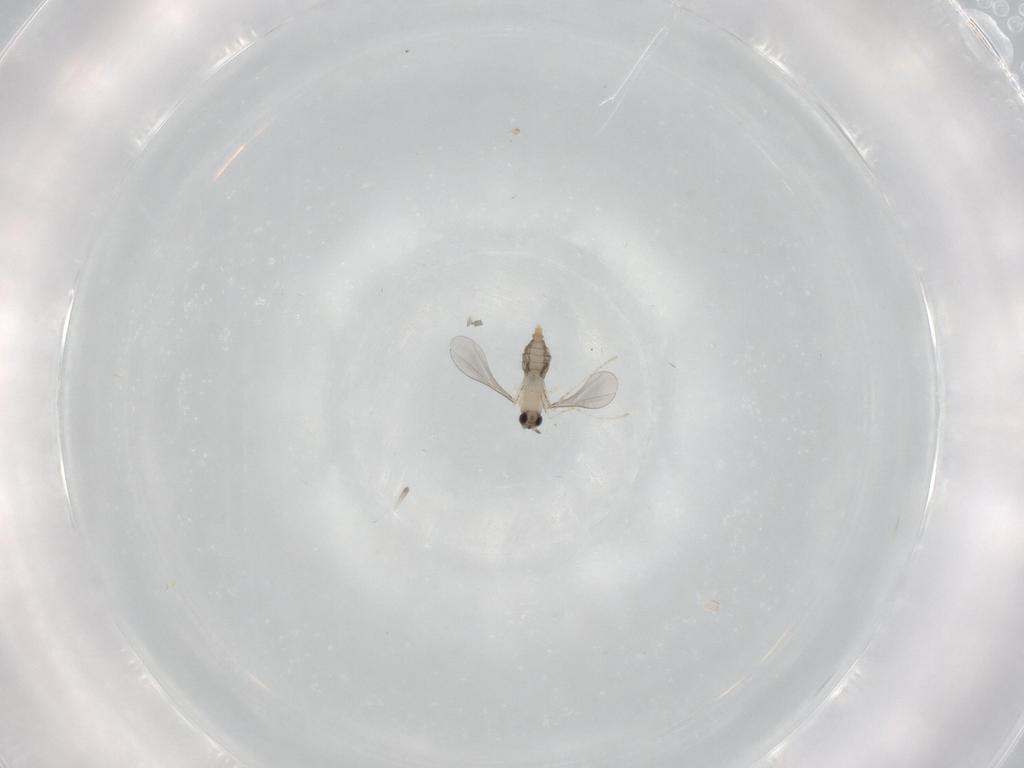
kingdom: Animalia
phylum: Arthropoda
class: Insecta
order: Diptera
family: Cecidomyiidae
